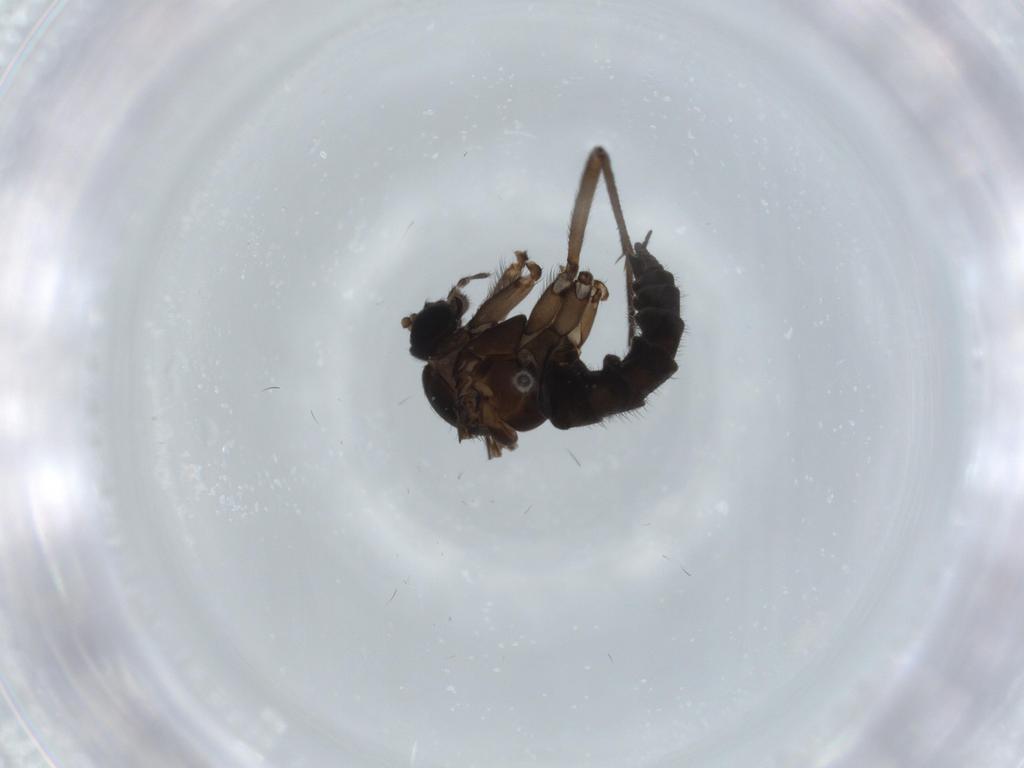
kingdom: Animalia
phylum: Arthropoda
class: Insecta
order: Diptera
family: Sciaridae
